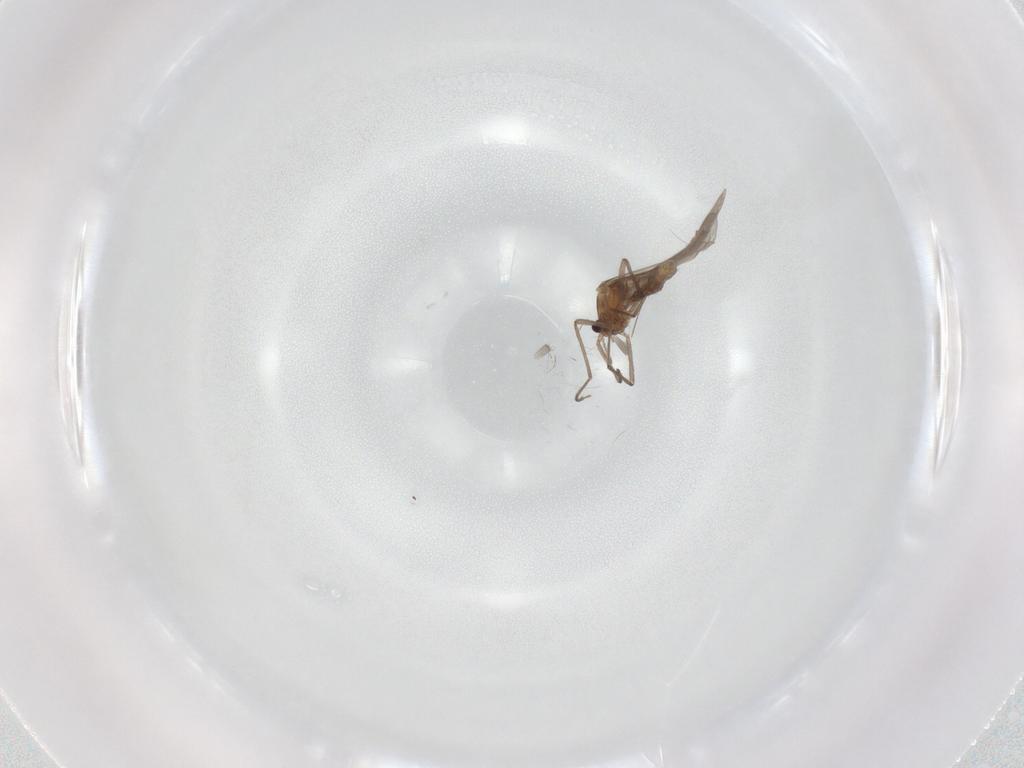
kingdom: Animalia
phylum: Arthropoda
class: Insecta
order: Diptera
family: Chironomidae
